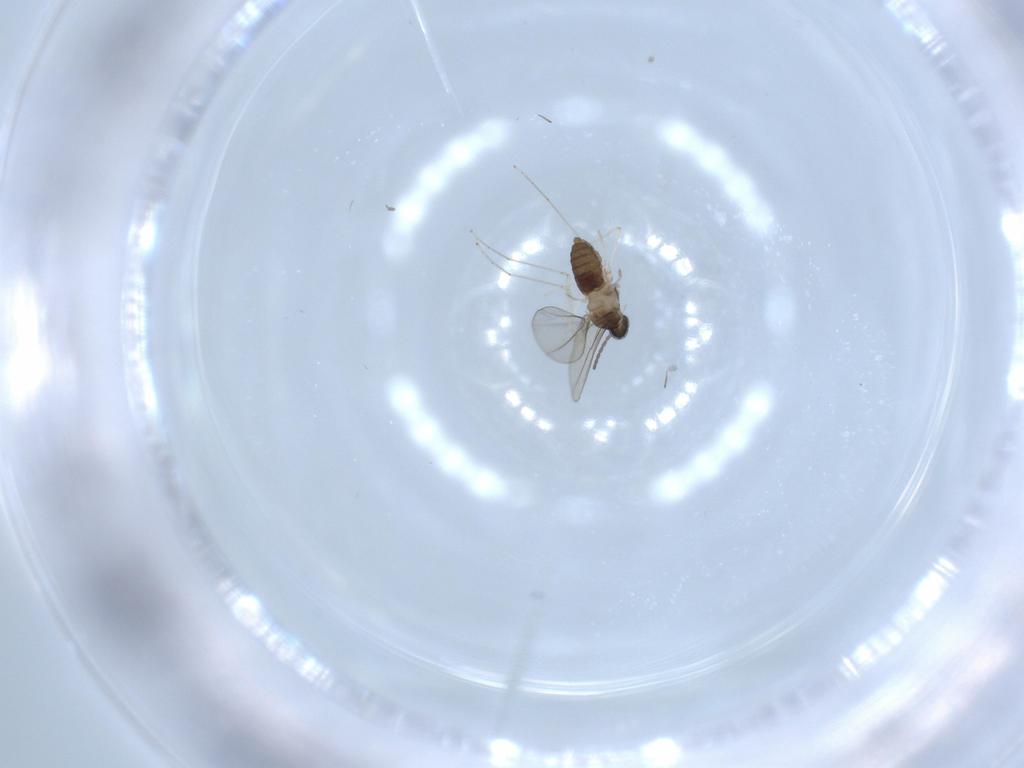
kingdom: Animalia
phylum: Arthropoda
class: Insecta
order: Diptera
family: Cecidomyiidae
